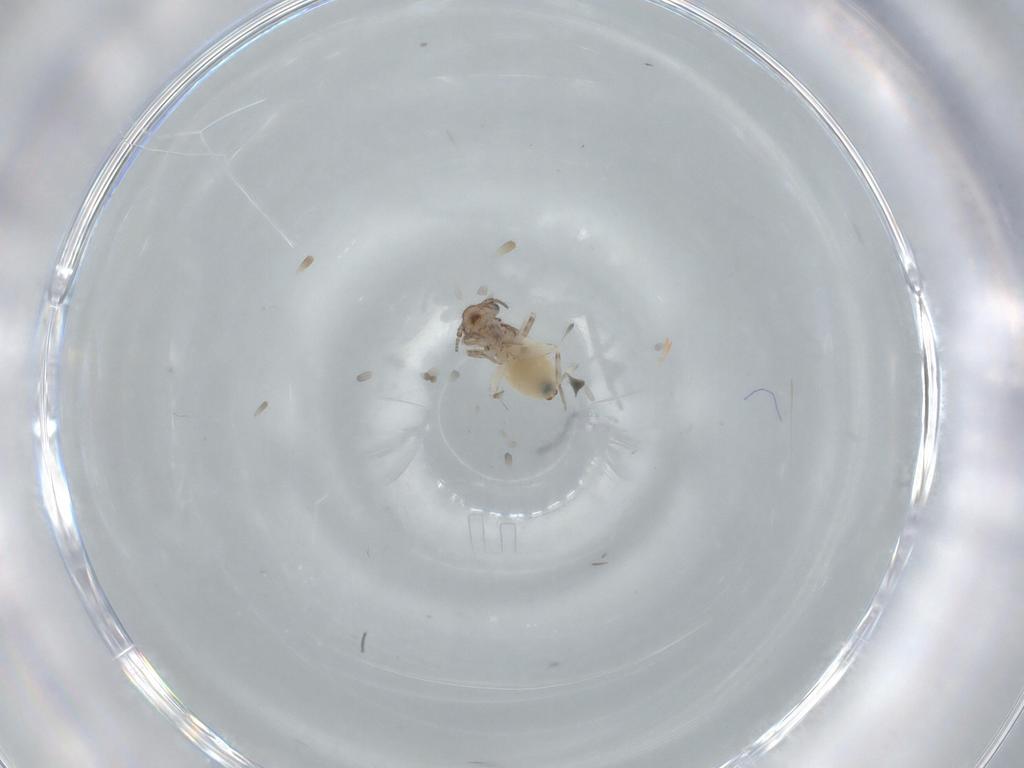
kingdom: Animalia
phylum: Arthropoda
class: Insecta
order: Psocodea
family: Lepidopsocidae
